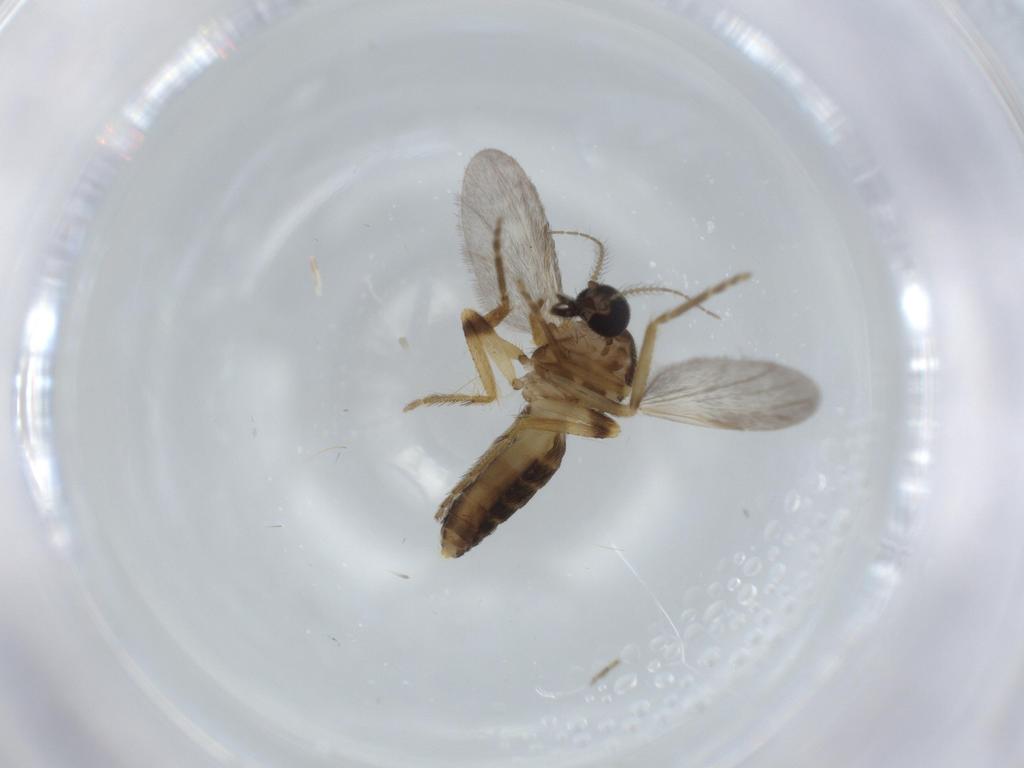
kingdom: Animalia
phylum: Arthropoda
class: Insecta
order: Diptera
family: Ceratopogonidae
